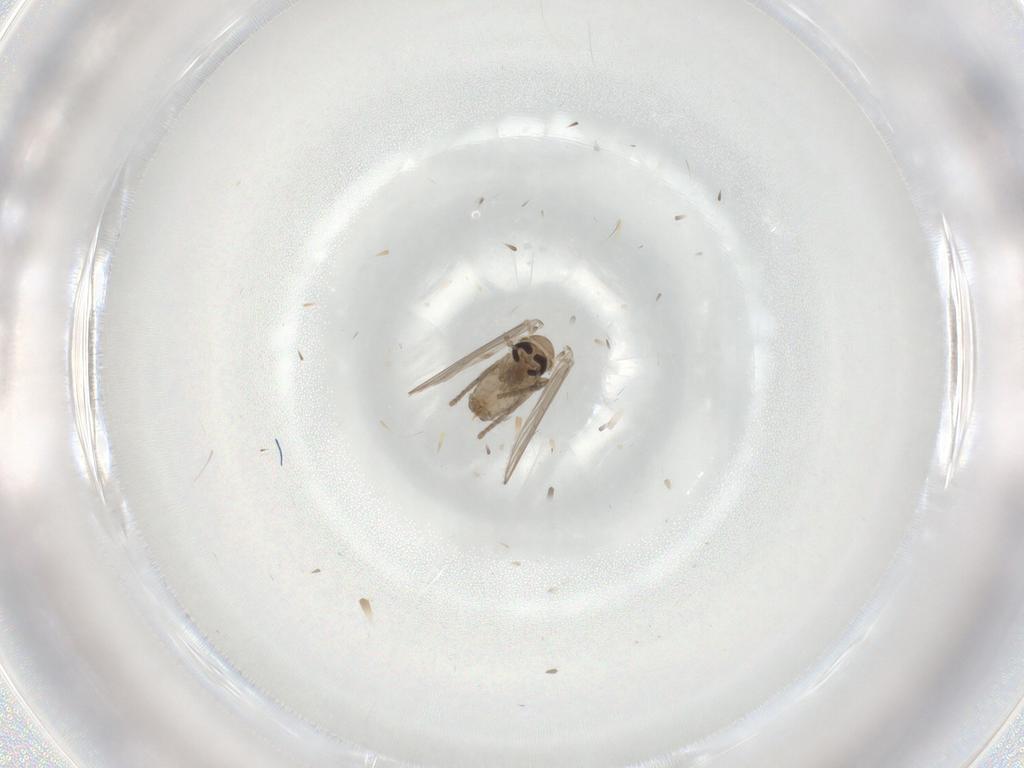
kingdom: Animalia
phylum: Arthropoda
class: Insecta
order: Diptera
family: Psychodidae
